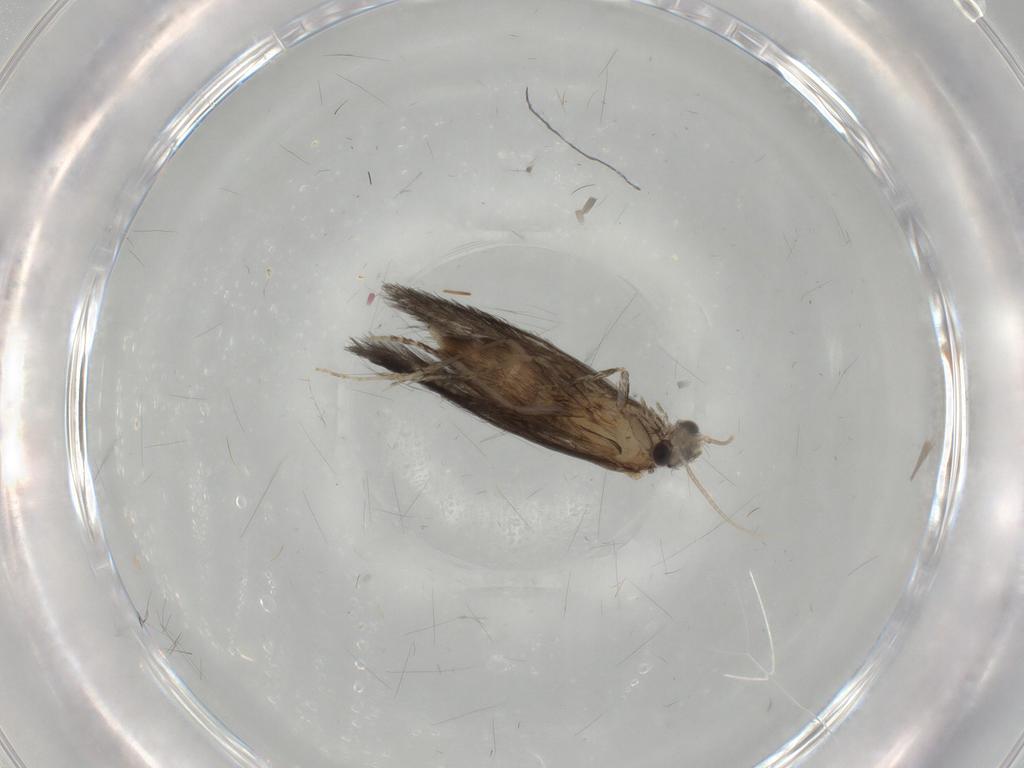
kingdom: Animalia
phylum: Arthropoda
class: Insecta
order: Trichoptera
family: Hydroptilidae
